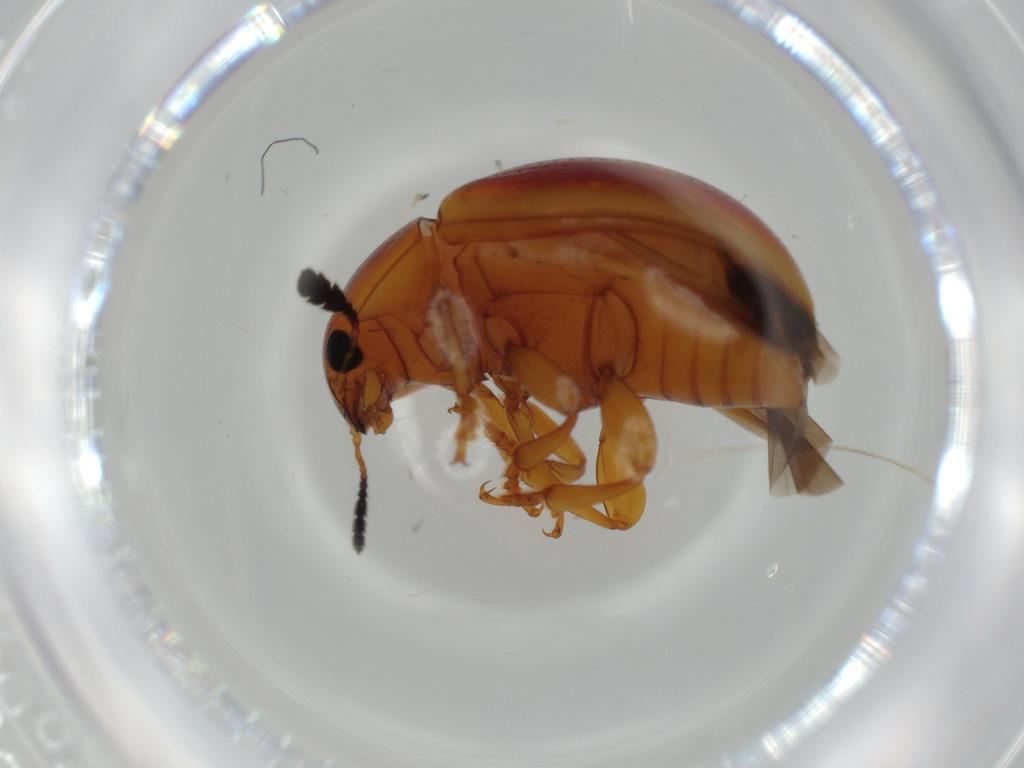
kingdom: Animalia
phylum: Arthropoda
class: Insecta
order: Coleoptera
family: Erotylidae
